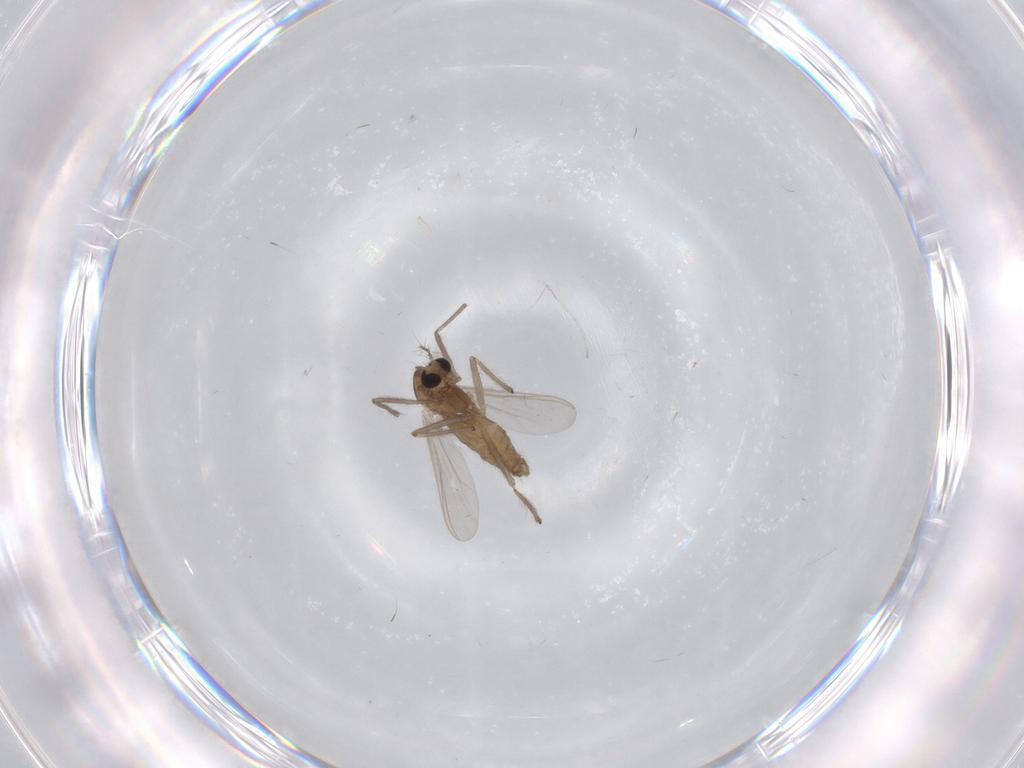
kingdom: Animalia
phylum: Arthropoda
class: Insecta
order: Diptera
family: Chironomidae
